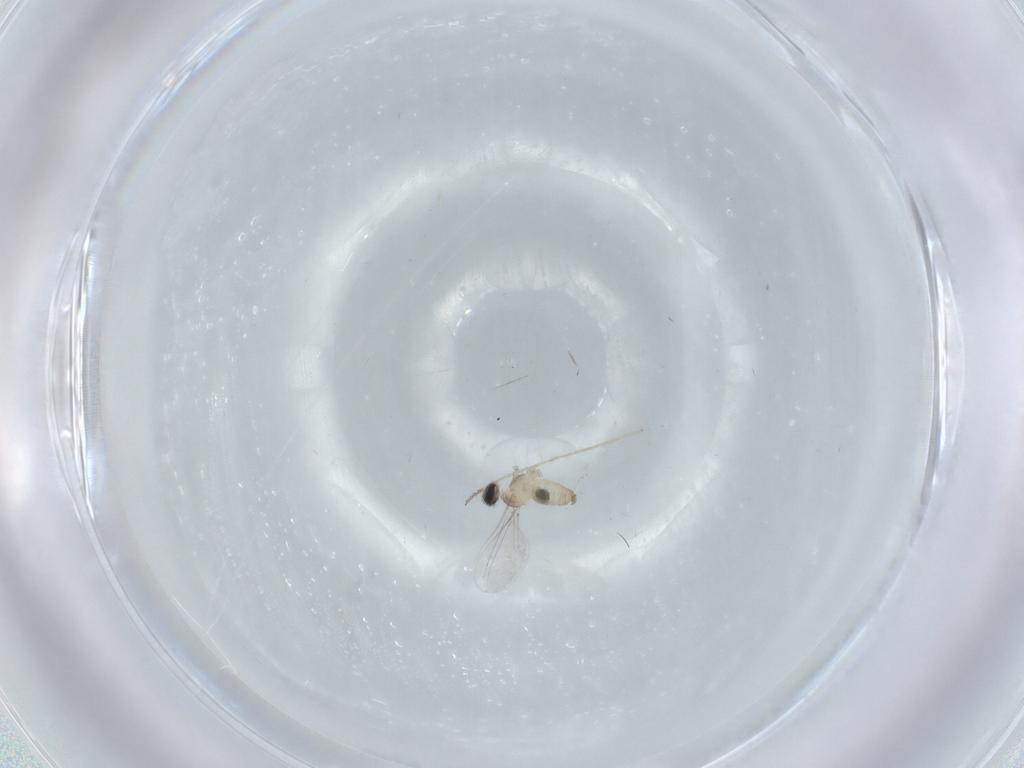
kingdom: Animalia
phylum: Arthropoda
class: Insecta
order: Diptera
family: Cecidomyiidae
